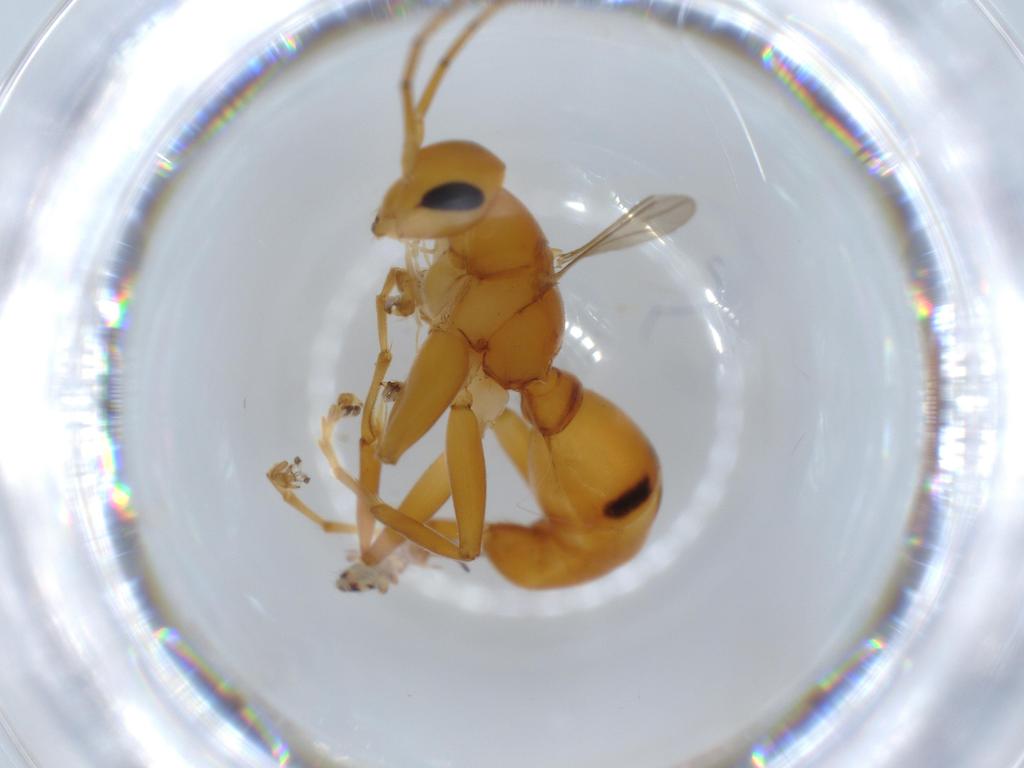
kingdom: Animalia
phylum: Arthropoda
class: Insecta
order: Hymenoptera
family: Rhopalosomatidae
